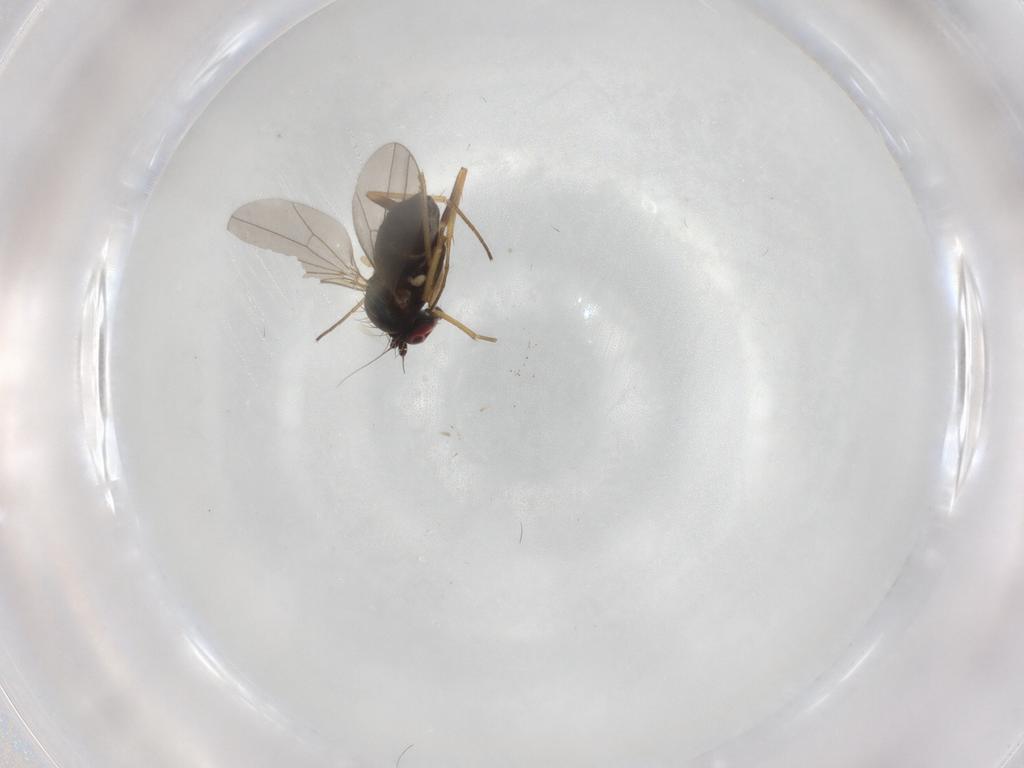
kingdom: Animalia
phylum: Arthropoda
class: Insecta
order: Diptera
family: Dolichopodidae
